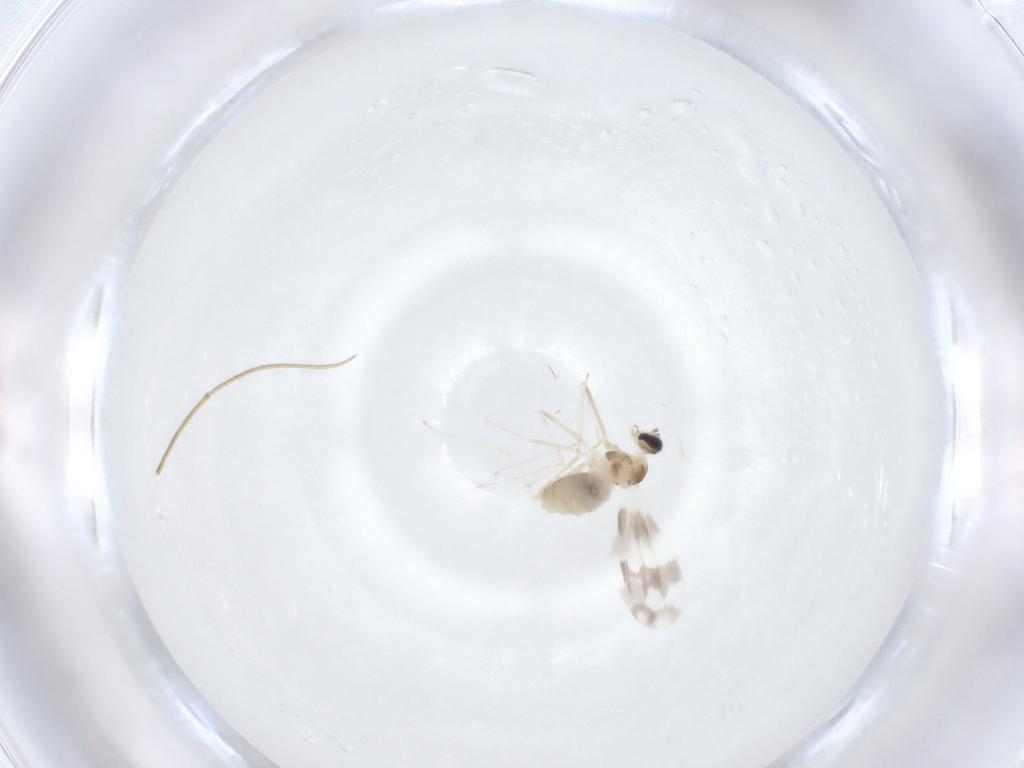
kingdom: Animalia
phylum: Arthropoda
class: Insecta
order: Diptera
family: Cecidomyiidae
